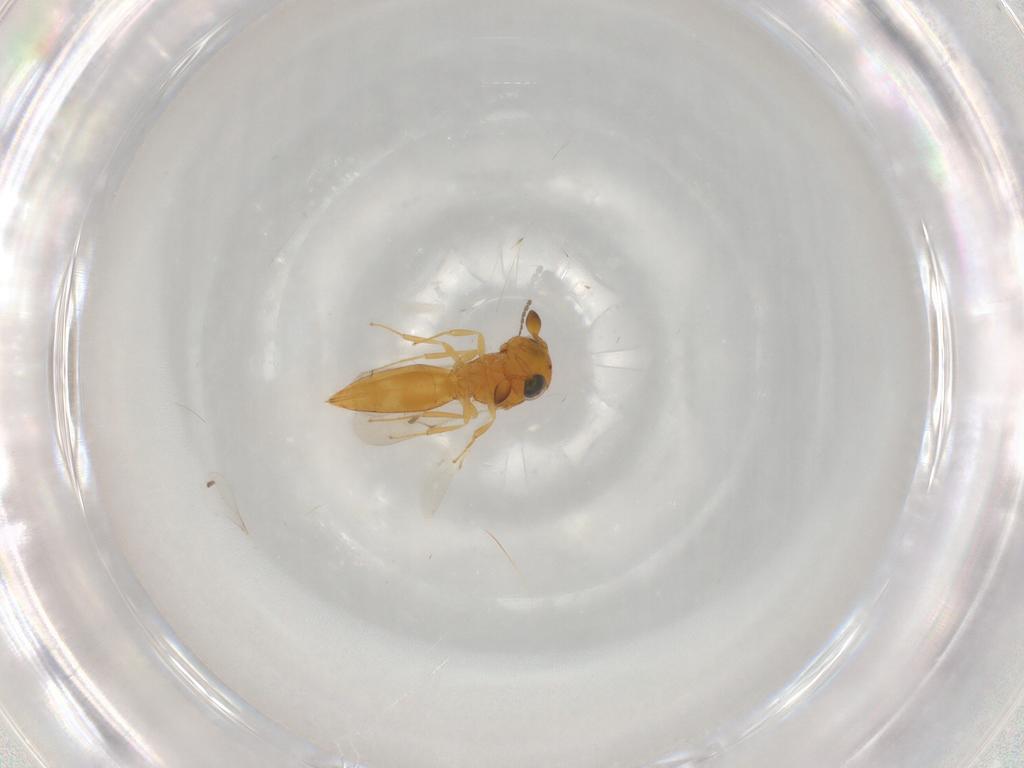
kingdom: Animalia
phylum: Arthropoda
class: Insecta
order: Hymenoptera
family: Scelionidae
